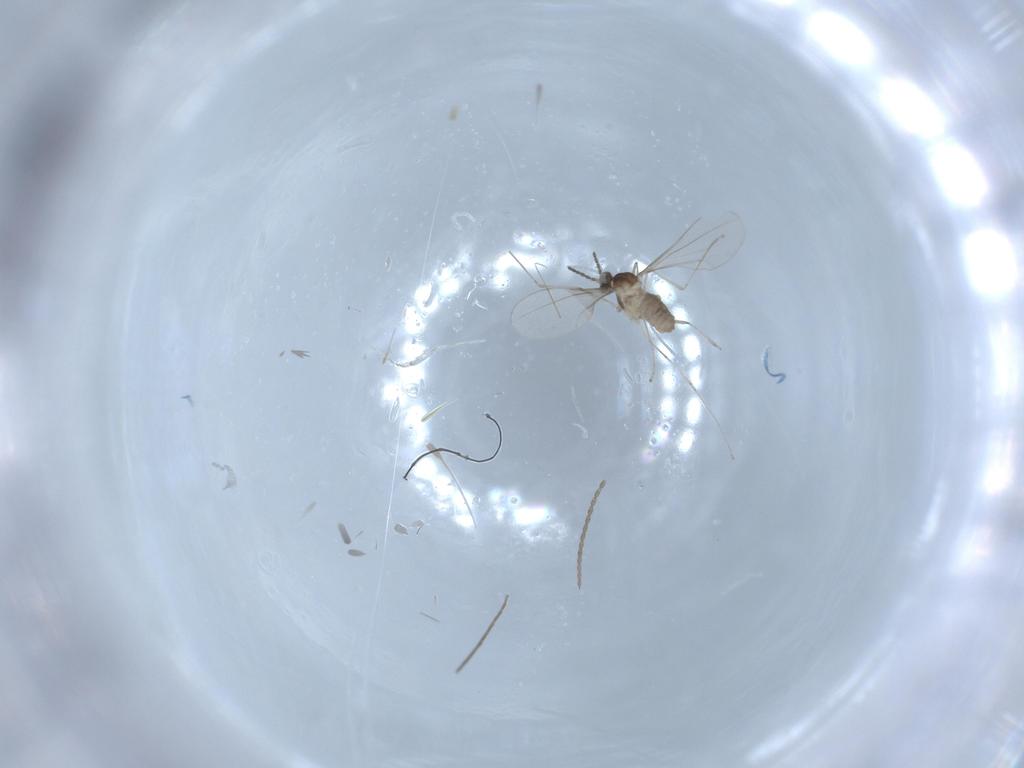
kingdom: Animalia
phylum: Arthropoda
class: Insecta
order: Diptera
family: Cecidomyiidae
